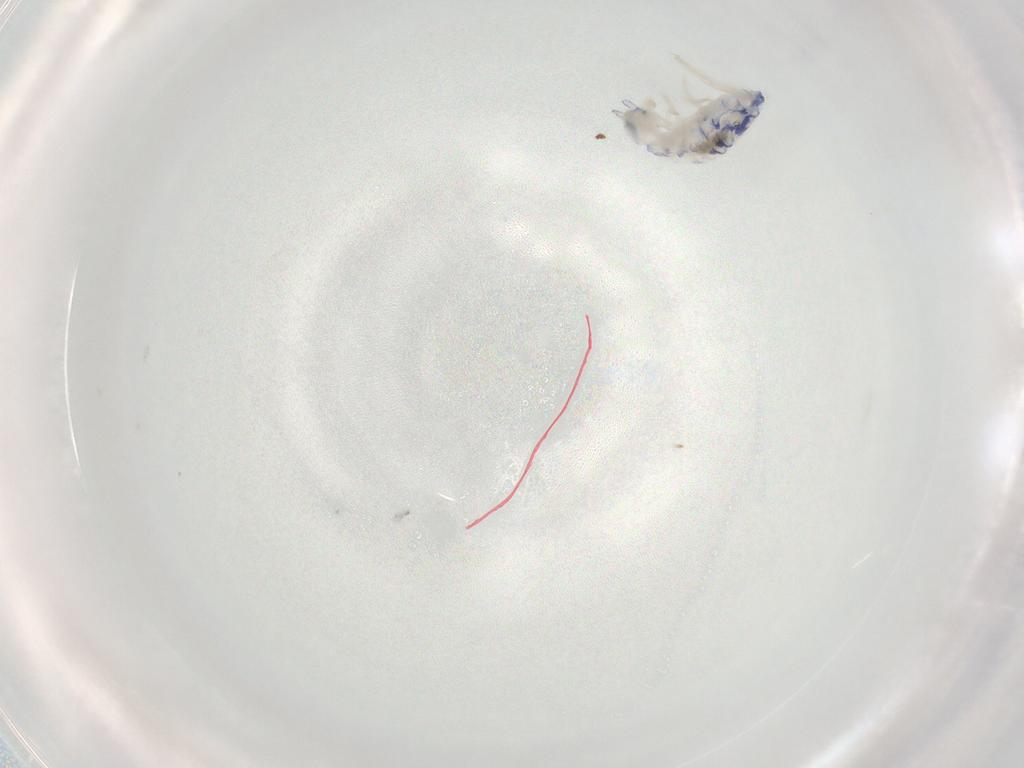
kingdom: Animalia
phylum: Arthropoda
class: Collembola
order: Entomobryomorpha
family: Entomobryidae
